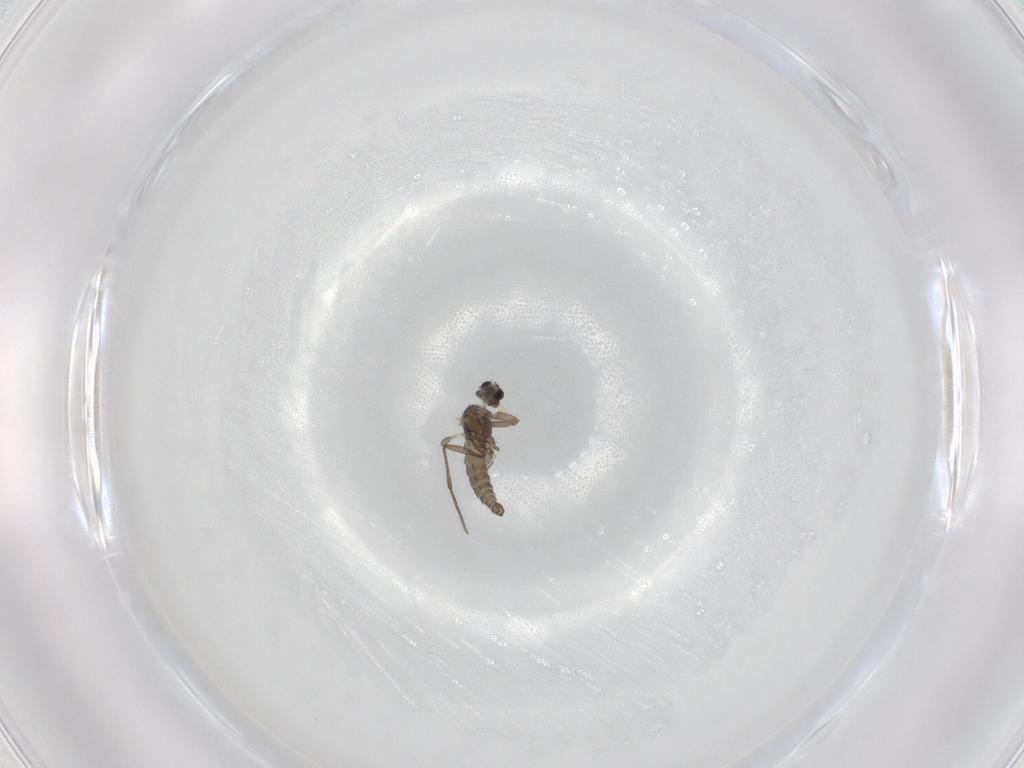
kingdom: Animalia
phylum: Arthropoda
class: Insecta
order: Diptera
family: Sciaridae
